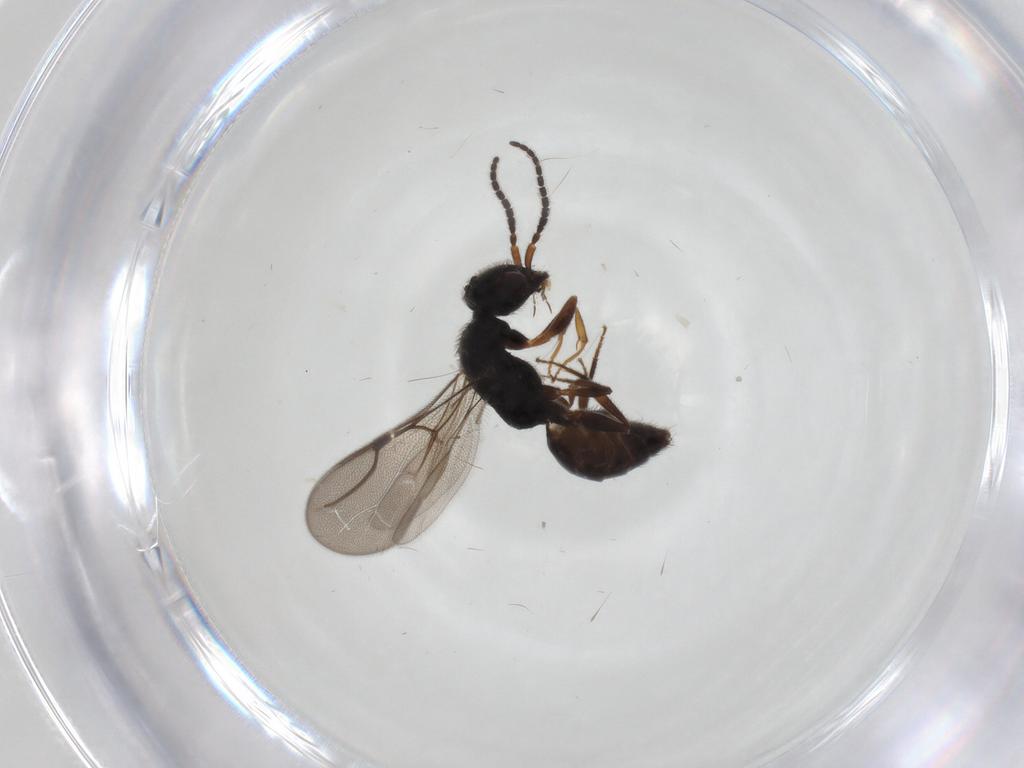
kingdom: Animalia
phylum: Arthropoda
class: Insecta
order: Hymenoptera
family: Bethylidae
